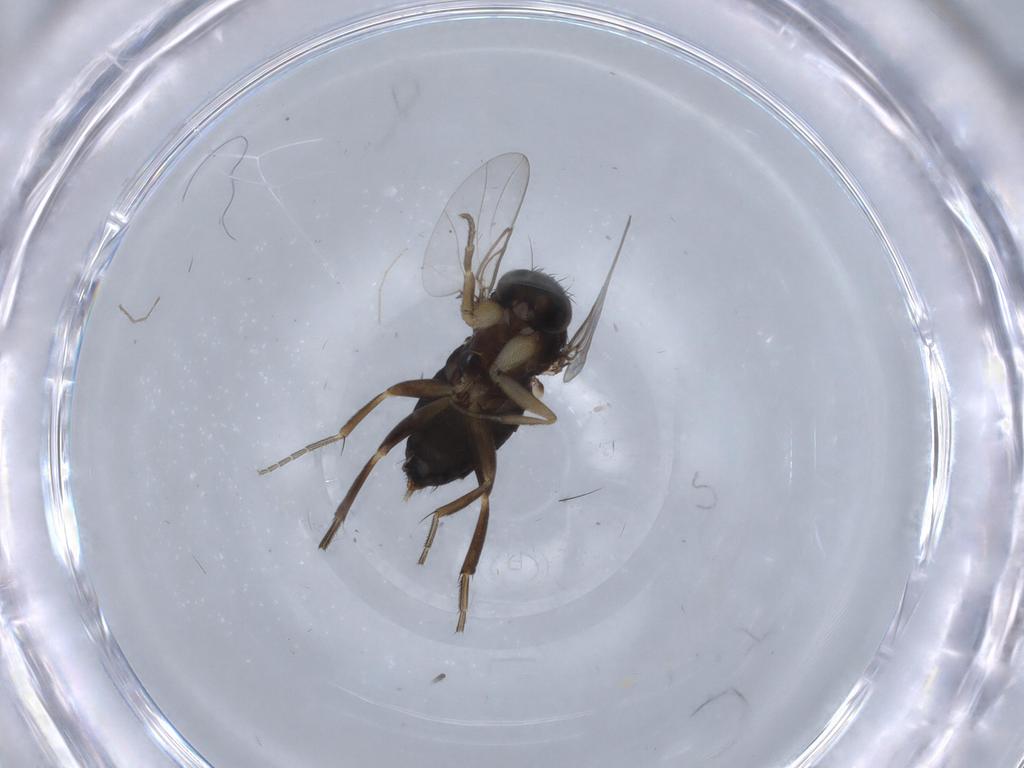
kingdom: Animalia
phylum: Arthropoda
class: Insecta
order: Diptera
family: Phoridae
